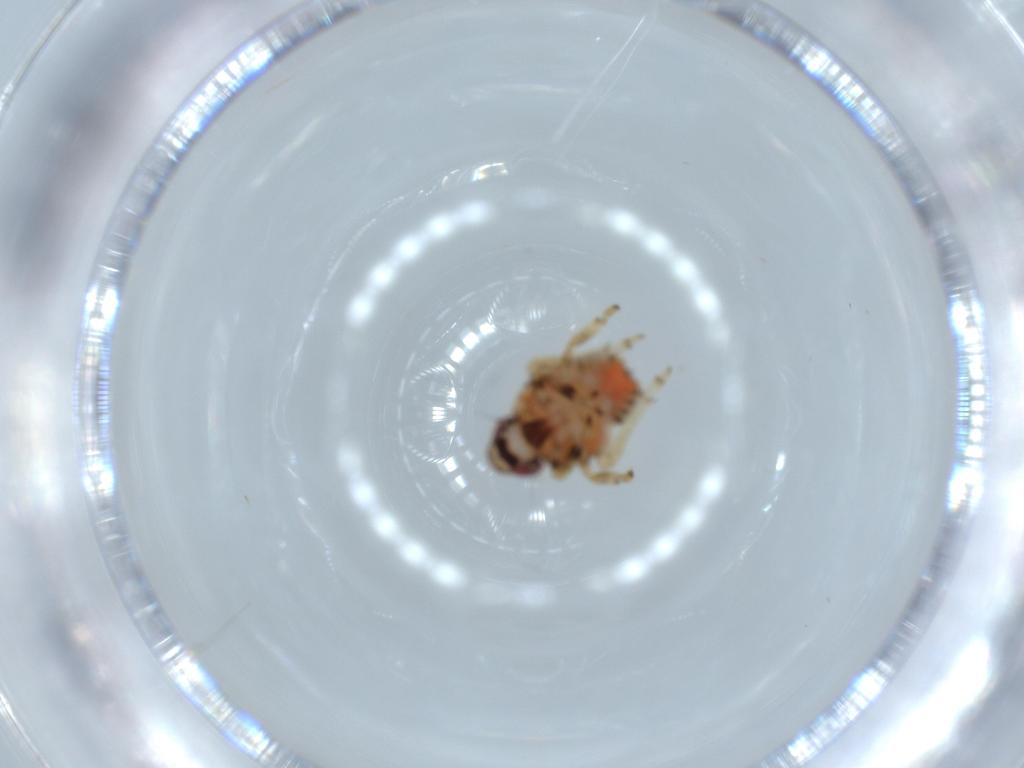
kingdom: Animalia
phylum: Arthropoda
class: Insecta
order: Hemiptera
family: Issidae
